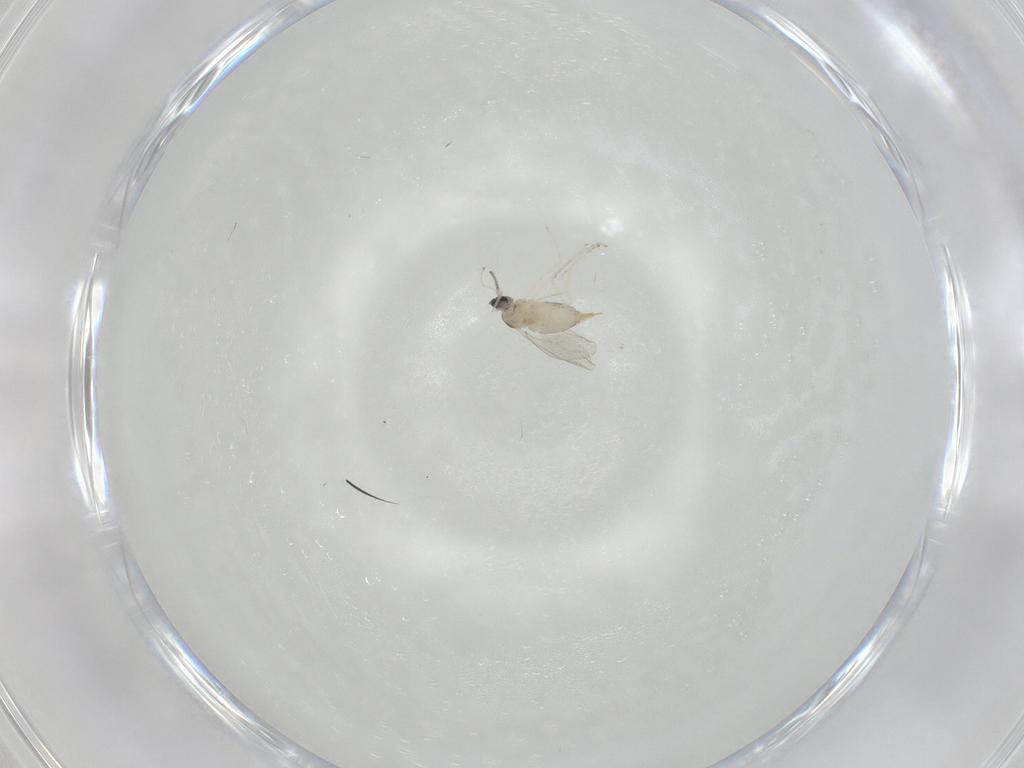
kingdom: Animalia
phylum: Arthropoda
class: Insecta
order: Diptera
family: Cecidomyiidae
